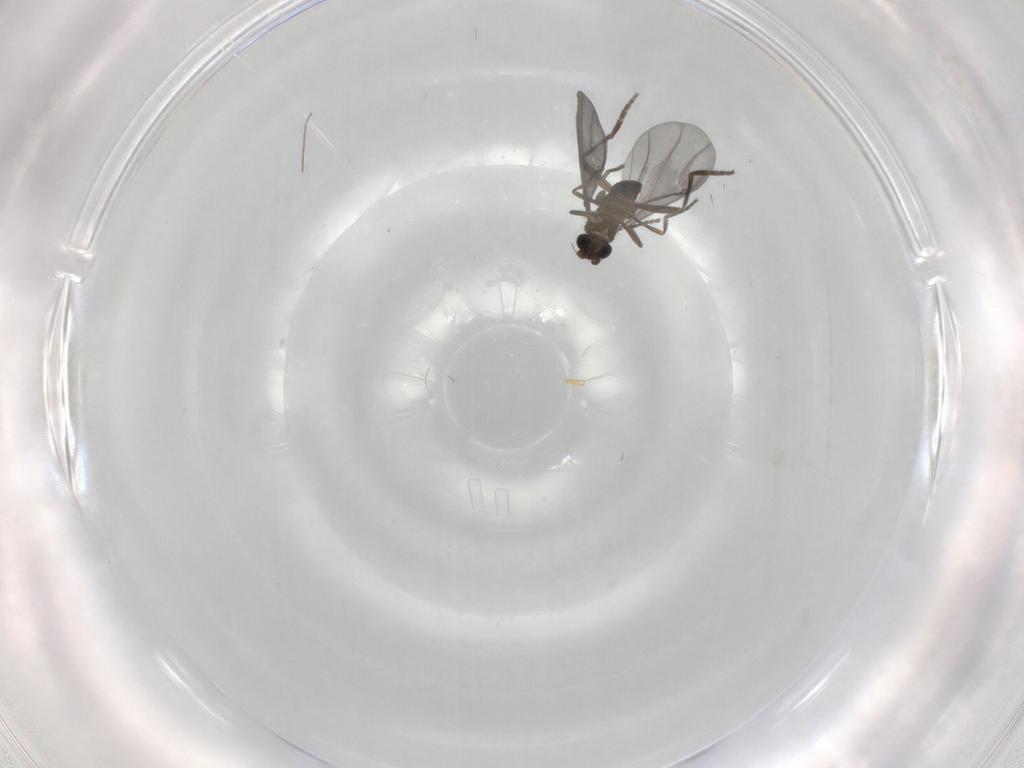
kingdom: Animalia
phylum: Arthropoda
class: Insecta
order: Diptera
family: Phoridae
